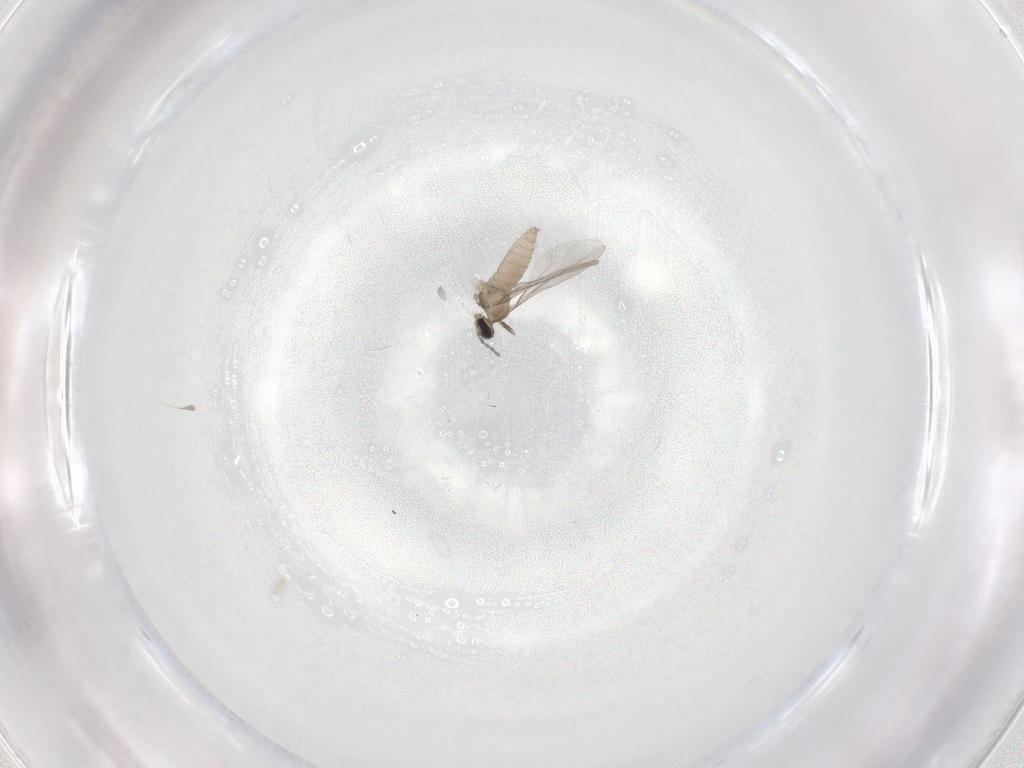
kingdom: Animalia
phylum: Arthropoda
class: Insecta
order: Diptera
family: Cecidomyiidae
